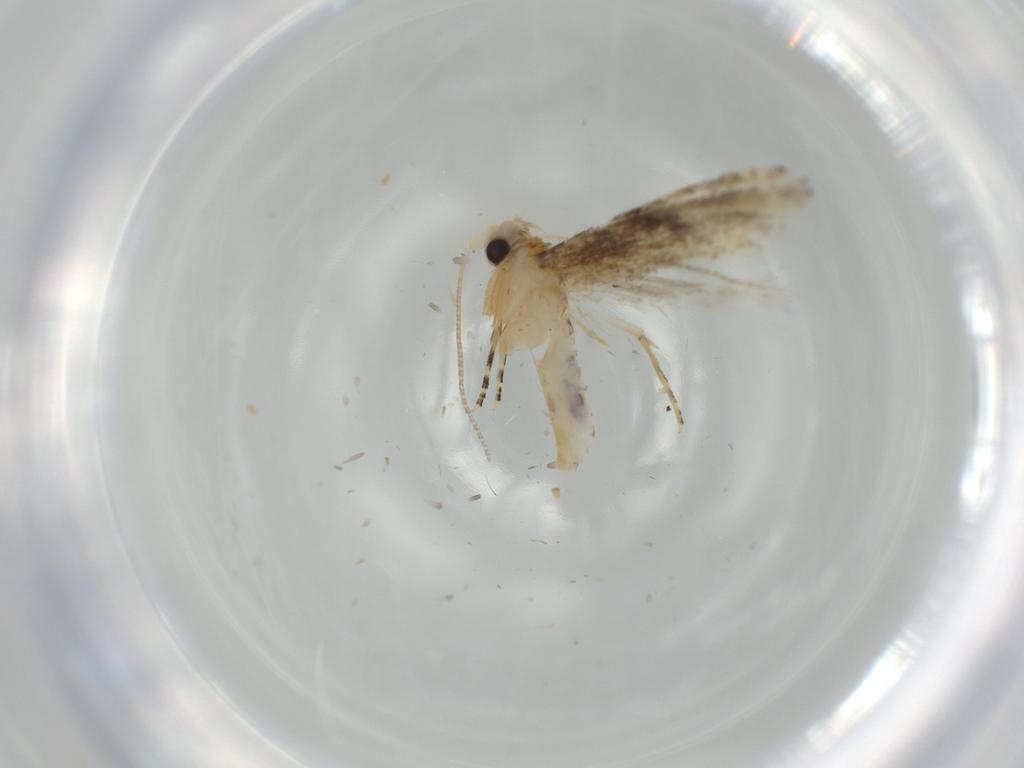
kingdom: Animalia
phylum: Arthropoda
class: Insecta
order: Lepidoptera
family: Bucculatricidae
